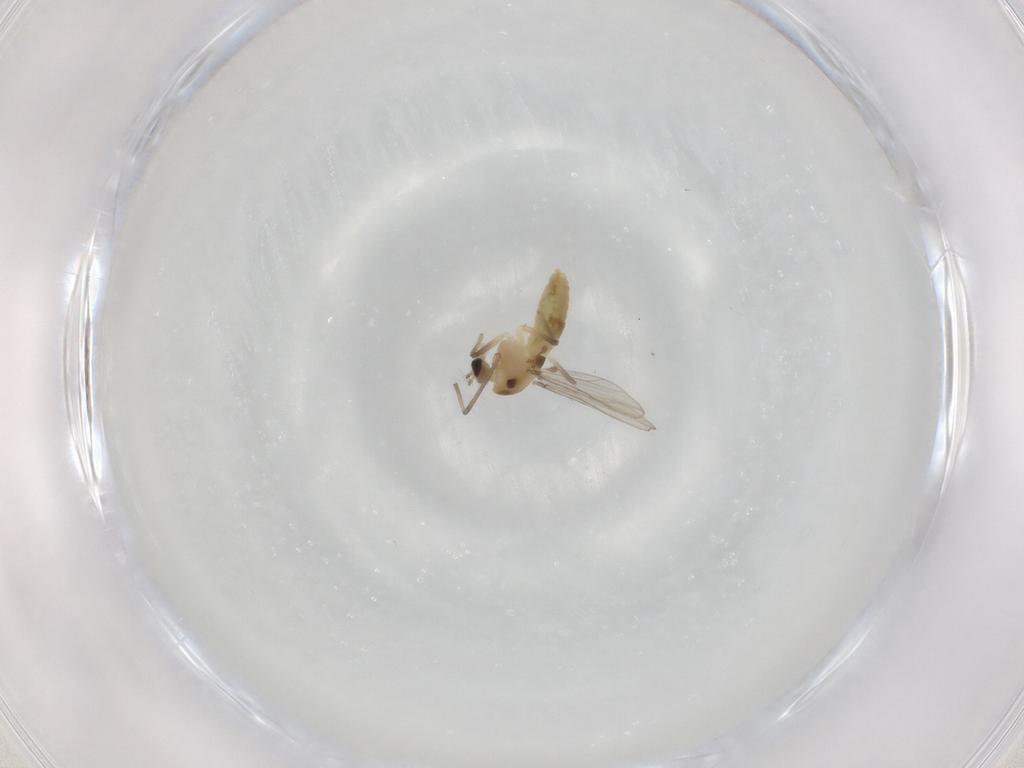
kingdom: Animalia
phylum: Arthropoda
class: Insecta
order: Diptera
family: Chironomidae
